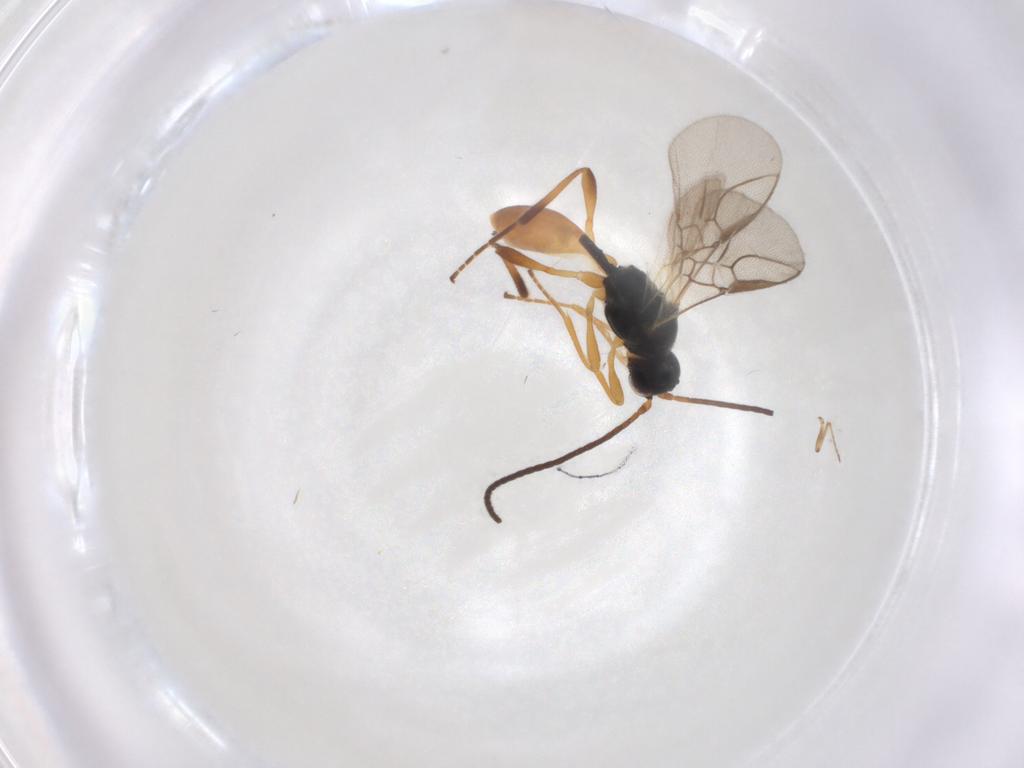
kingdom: Animalia
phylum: Arthropoda
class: Insecta
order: Hymenoptera
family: Braconidae
